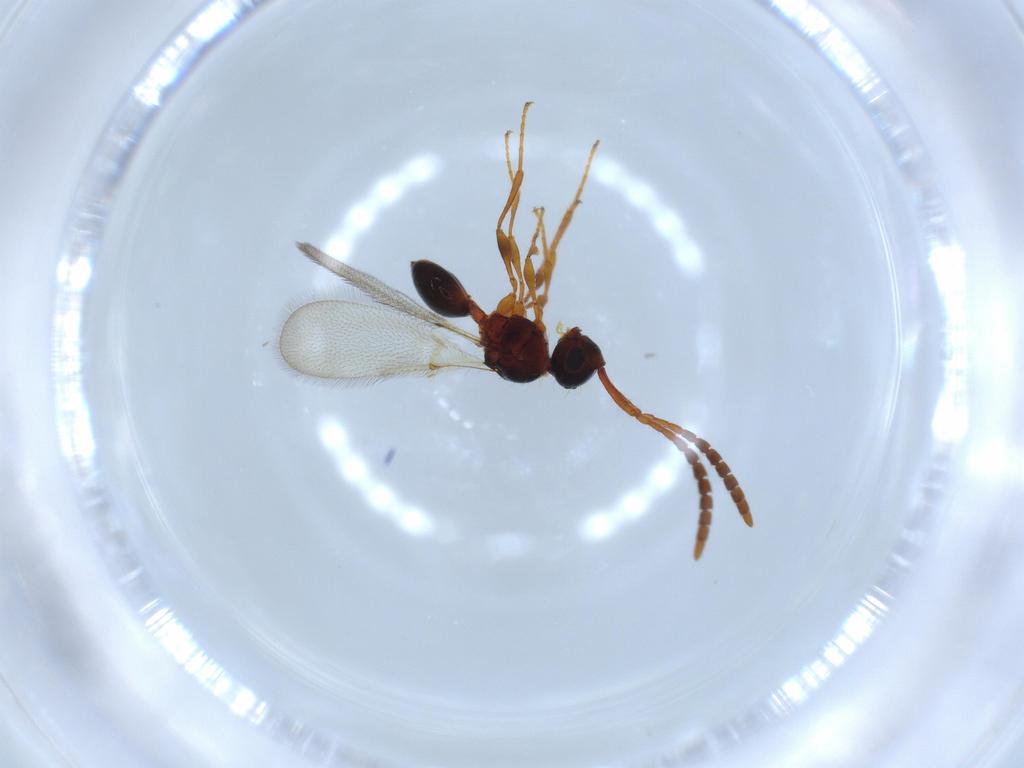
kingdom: Animalia
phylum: Arthropoda
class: Insecta
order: Hymenoptera
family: Diapriidae
